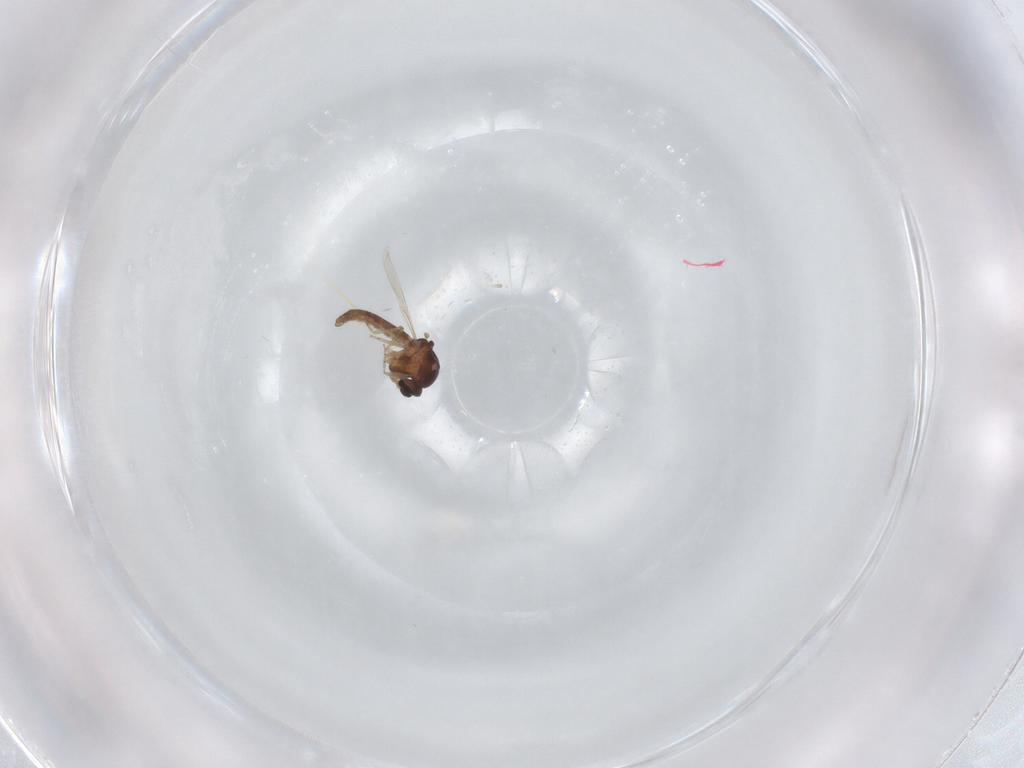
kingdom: Animalia
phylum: Arthropoda
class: Insecta
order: Diptera
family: Ceratopogonidae
